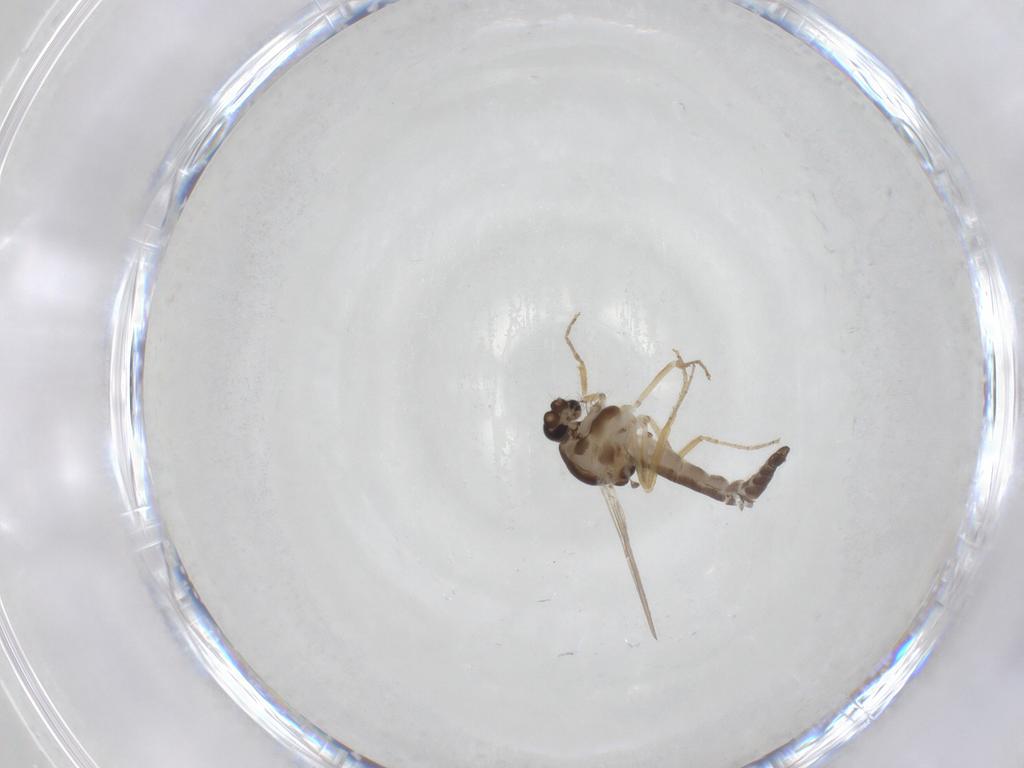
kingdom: Animalia
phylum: Arthropoda
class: Insecta
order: Diptera
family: Ceratopogonidae
